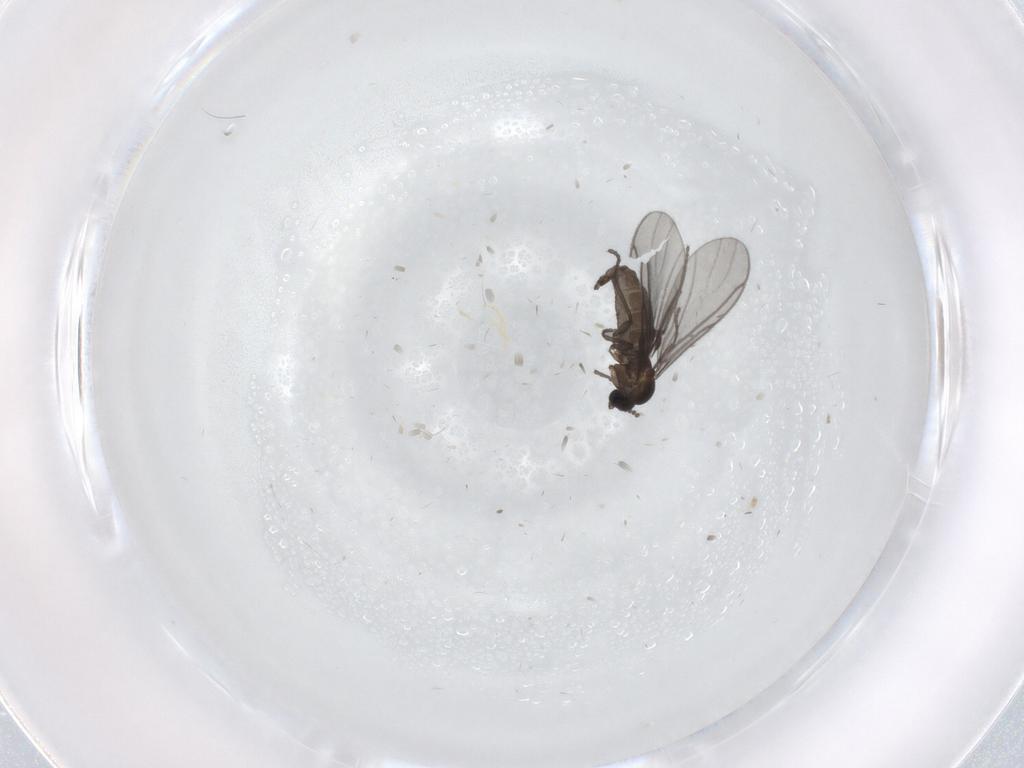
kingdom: Animalia
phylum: Arthropoda
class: Insecta
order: Diptera
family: Sciaridae
